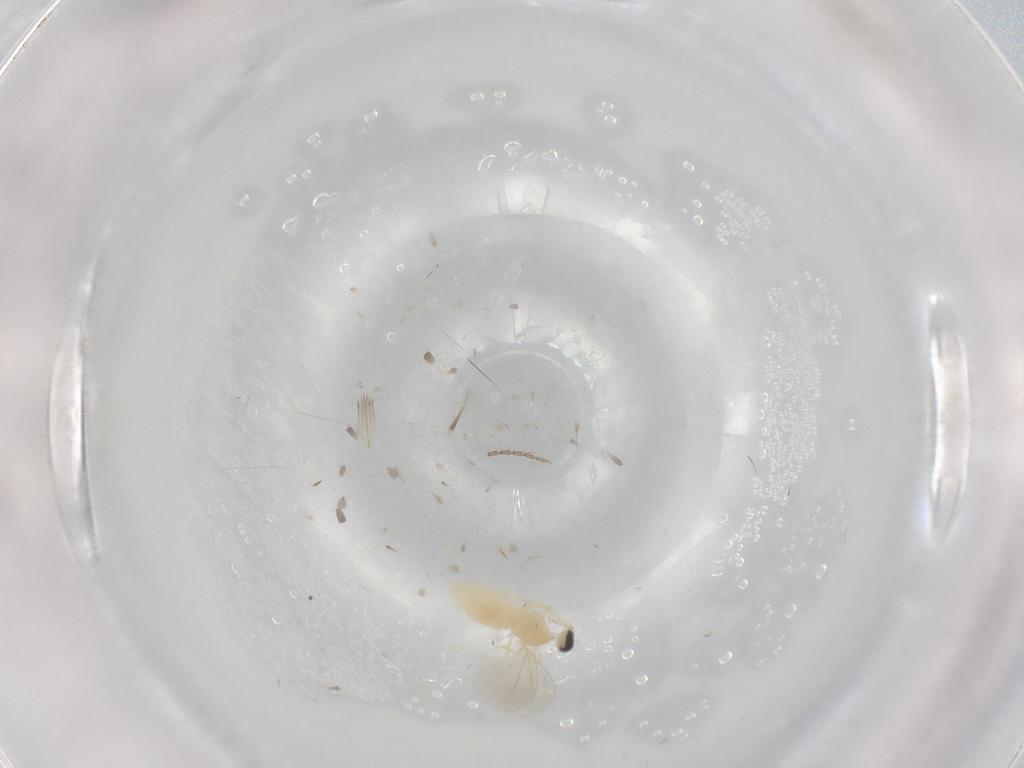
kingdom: Animalia
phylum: Arthropoda
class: Insecta
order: Diptera
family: Cecidomyiidae
